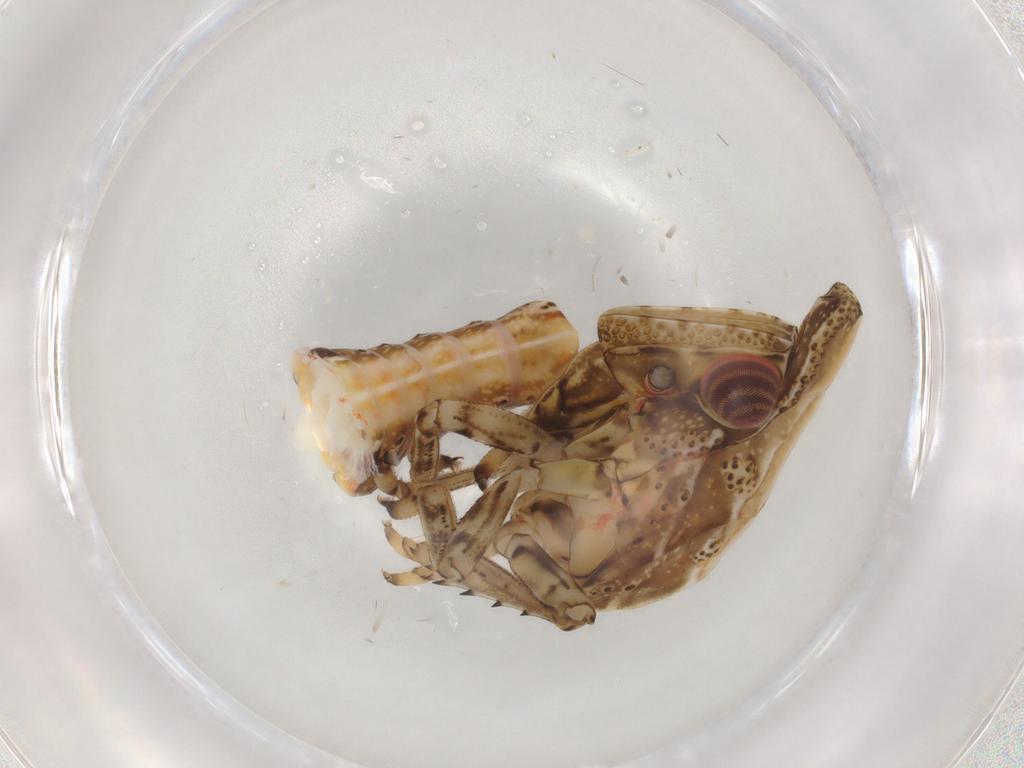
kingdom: Animalia
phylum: Arthropoda
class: Insecta
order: Hemiptera
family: Fulgoroidea_incertae_sedis
